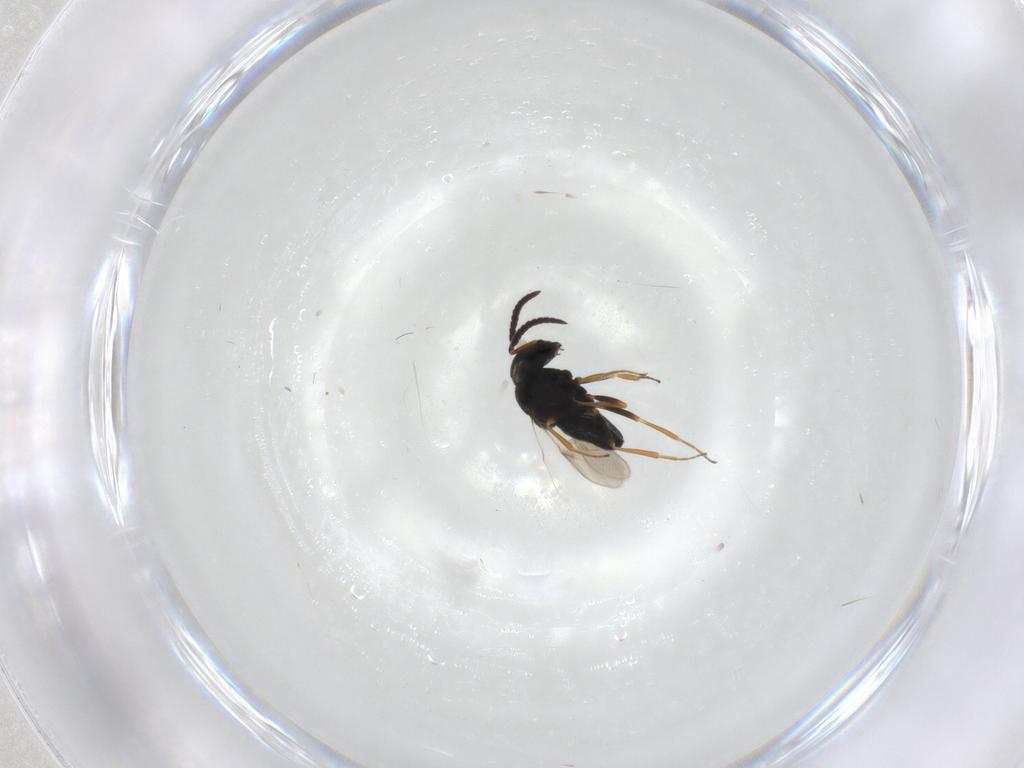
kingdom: Animalia
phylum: Arthropoda
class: Insecta
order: Hymenoptera
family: Scelionidae
